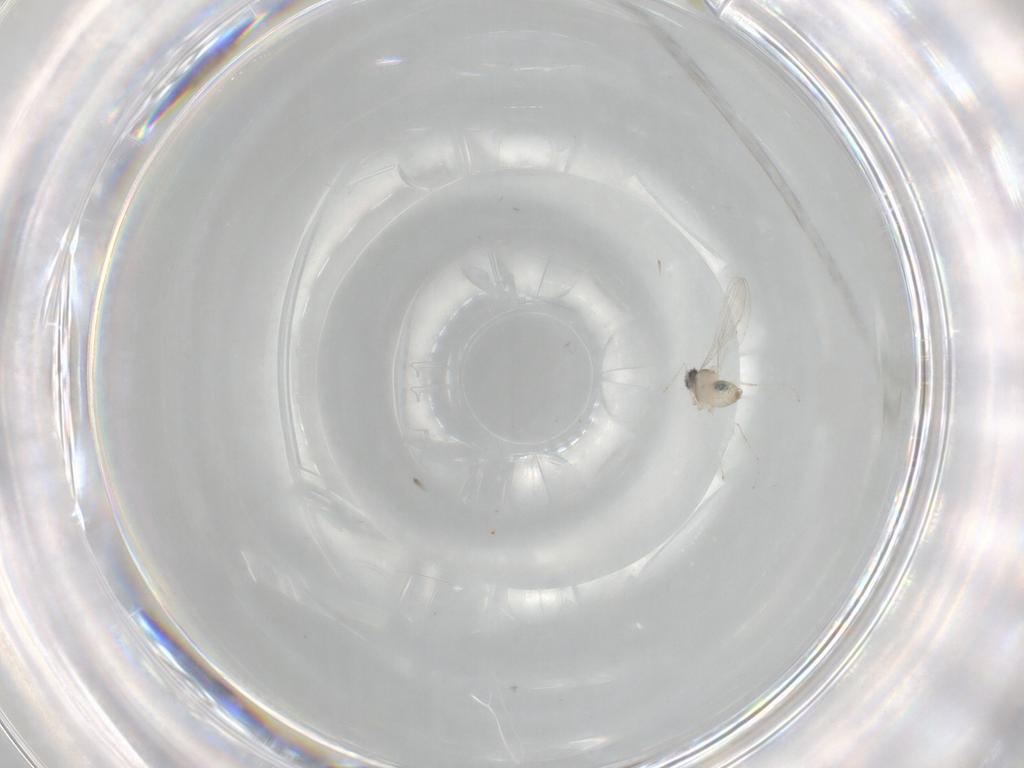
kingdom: Animalia
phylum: Arthropoda
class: Insecta
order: Diptera
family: Cecidomyiidae
